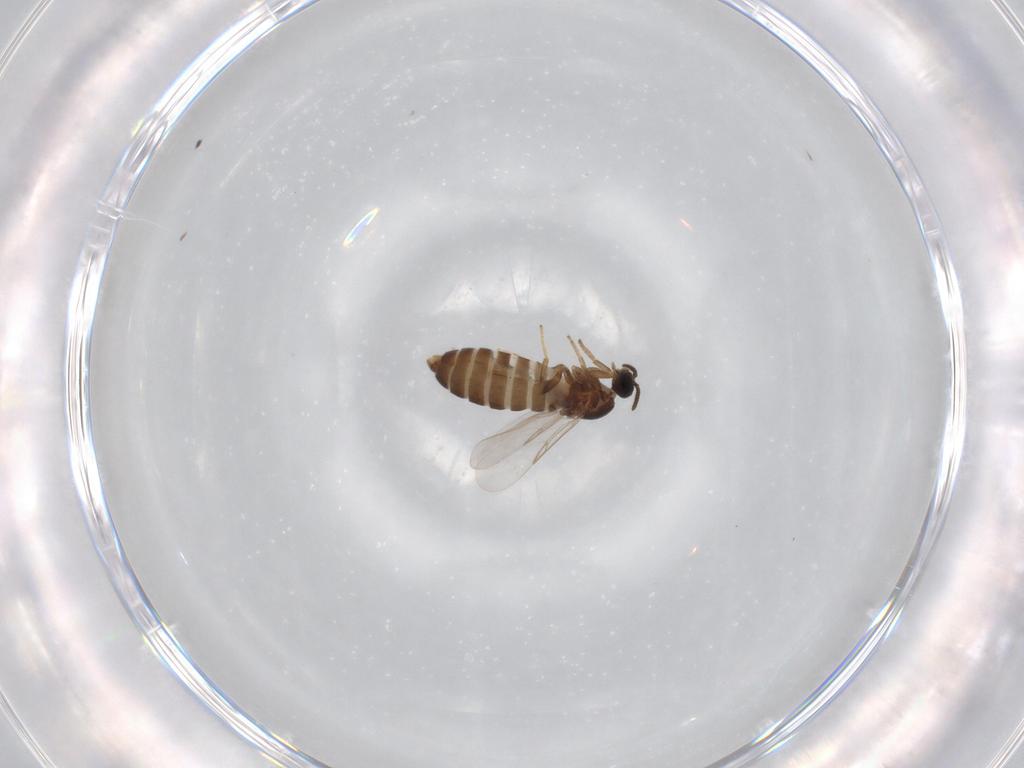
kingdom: Animalia
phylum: Arthropoda
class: Insecta
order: Diptera
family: Scatopsidae
